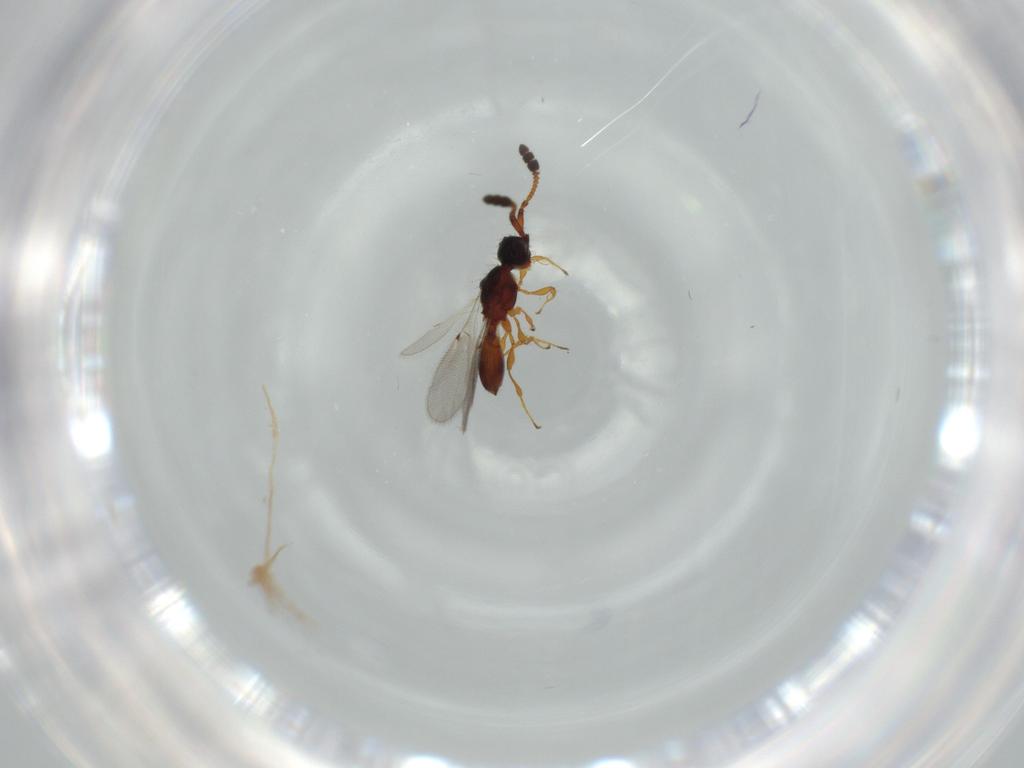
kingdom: Animalia
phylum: Arthropoda
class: Insecta
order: Hymenoptera
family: Diapriidae
